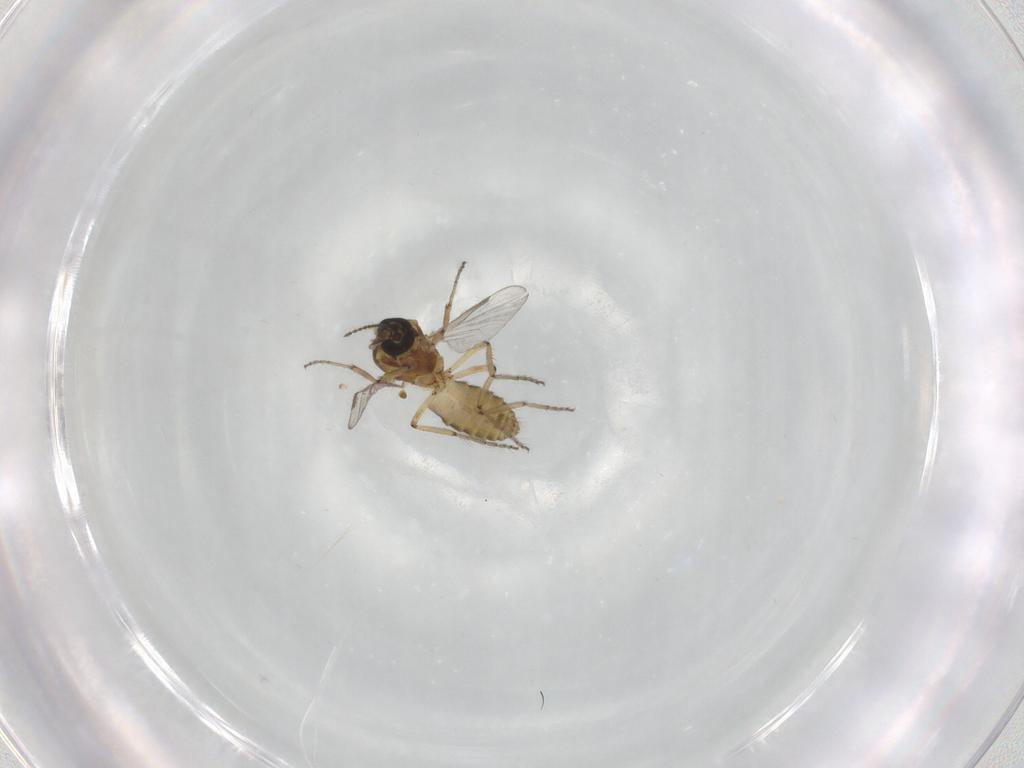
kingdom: Animalia
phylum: Arthropoda
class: Insecta
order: Diptera
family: Ceratopogonidae
